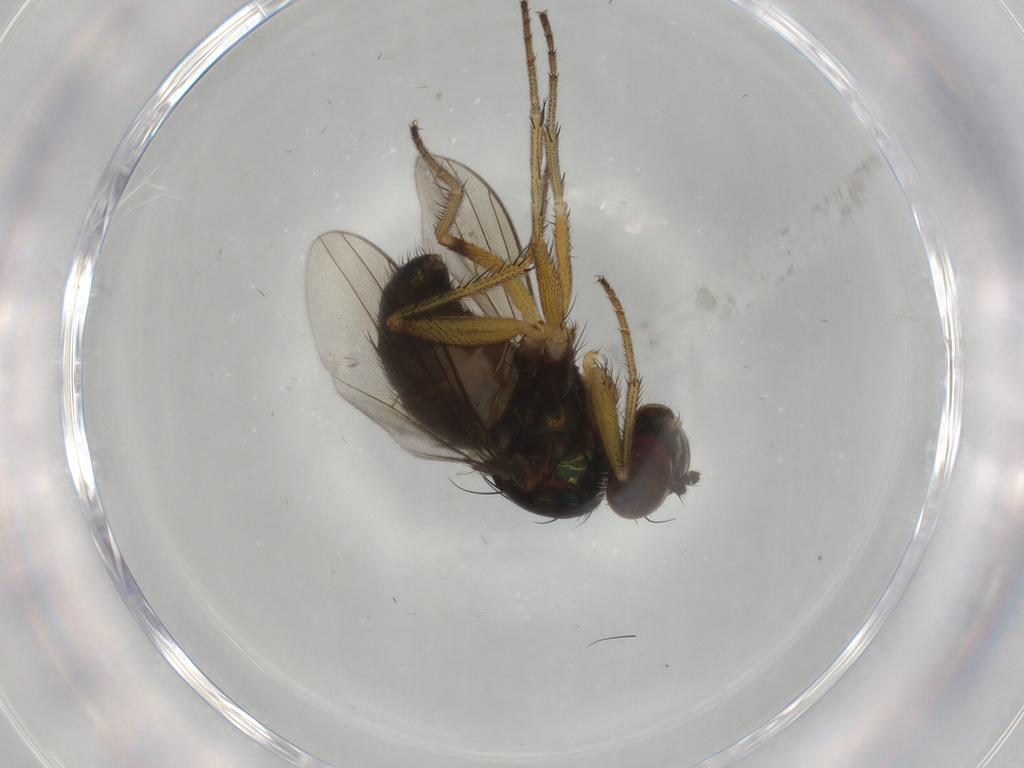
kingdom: Animalia
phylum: Arthropoda
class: Insecta
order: Diptera
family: Dolichopodidae
